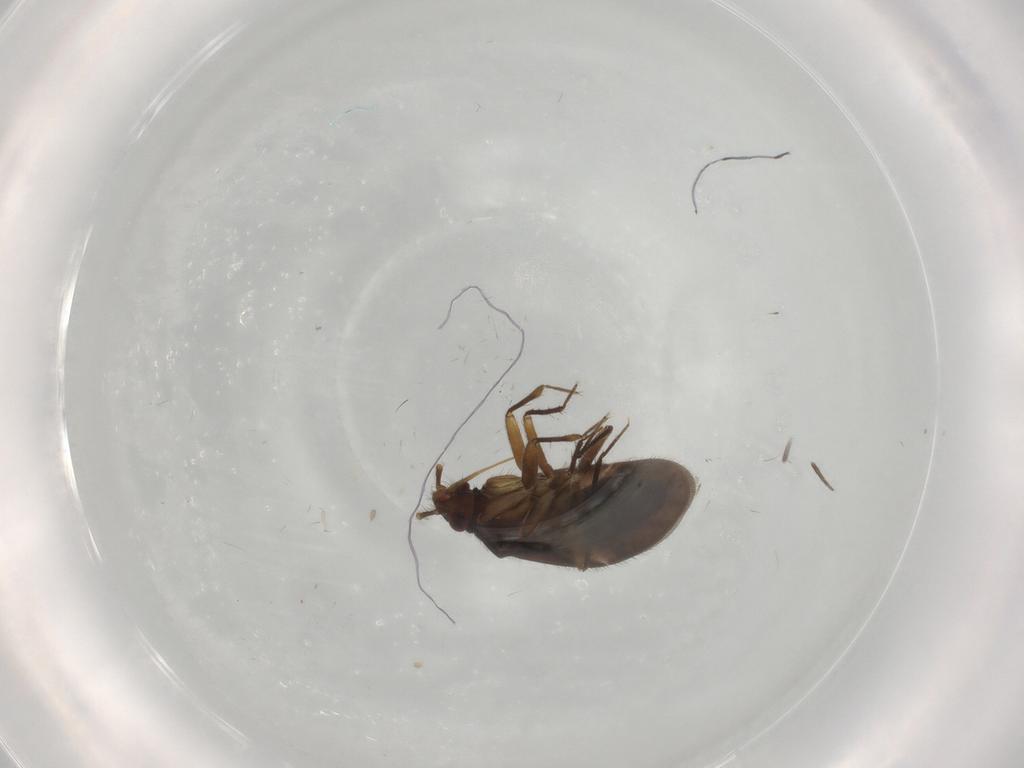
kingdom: Animalia
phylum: Arthropoda
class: Insecta
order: Hemiptera
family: Ceratocombidae
